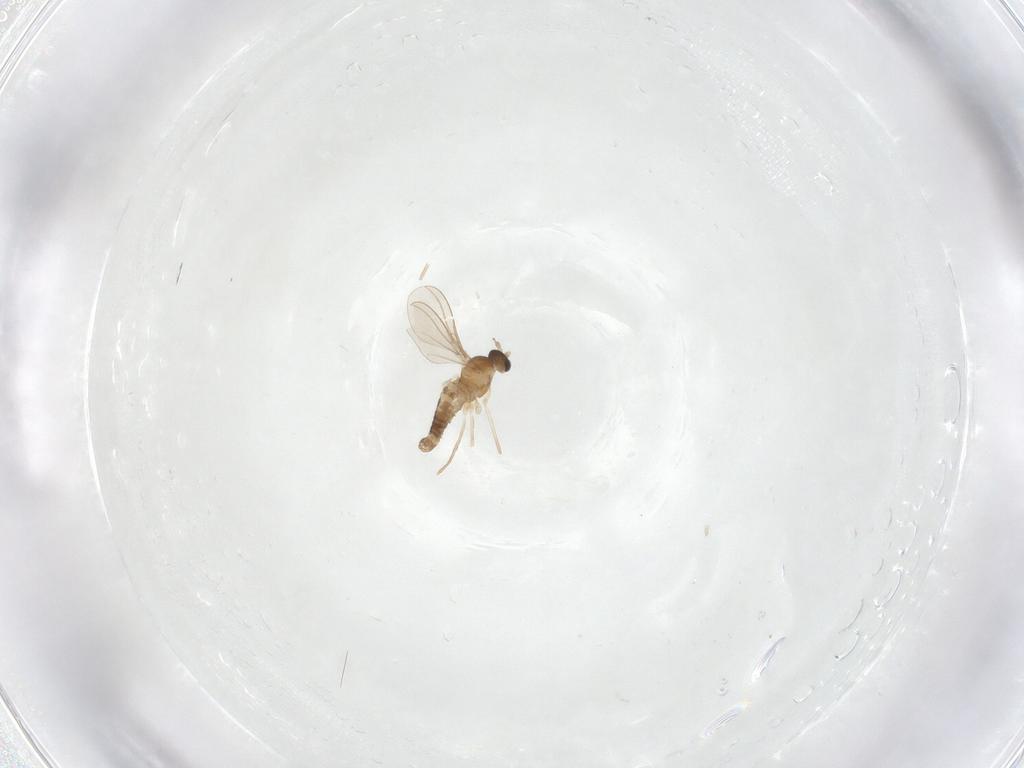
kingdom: Animalia
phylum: Arthropoda
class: Insecta
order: Diptera
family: Cecidomyiidae
